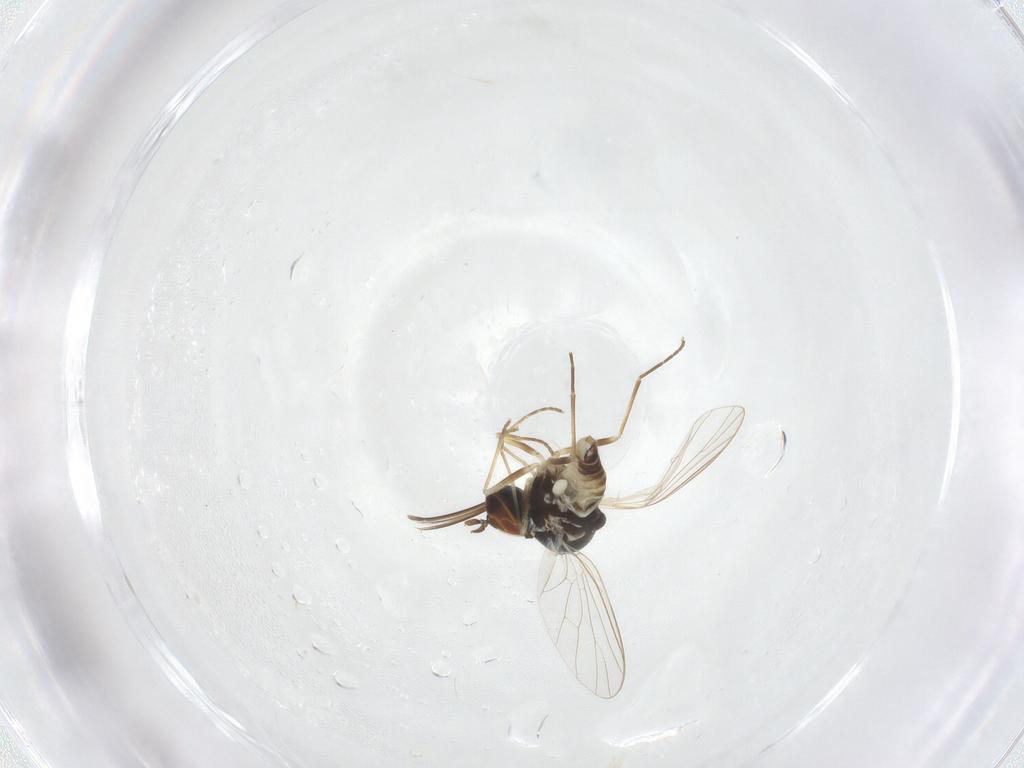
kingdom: Animalia
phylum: Arthropoda
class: Insecta
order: Diptera
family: Bombyliidae
